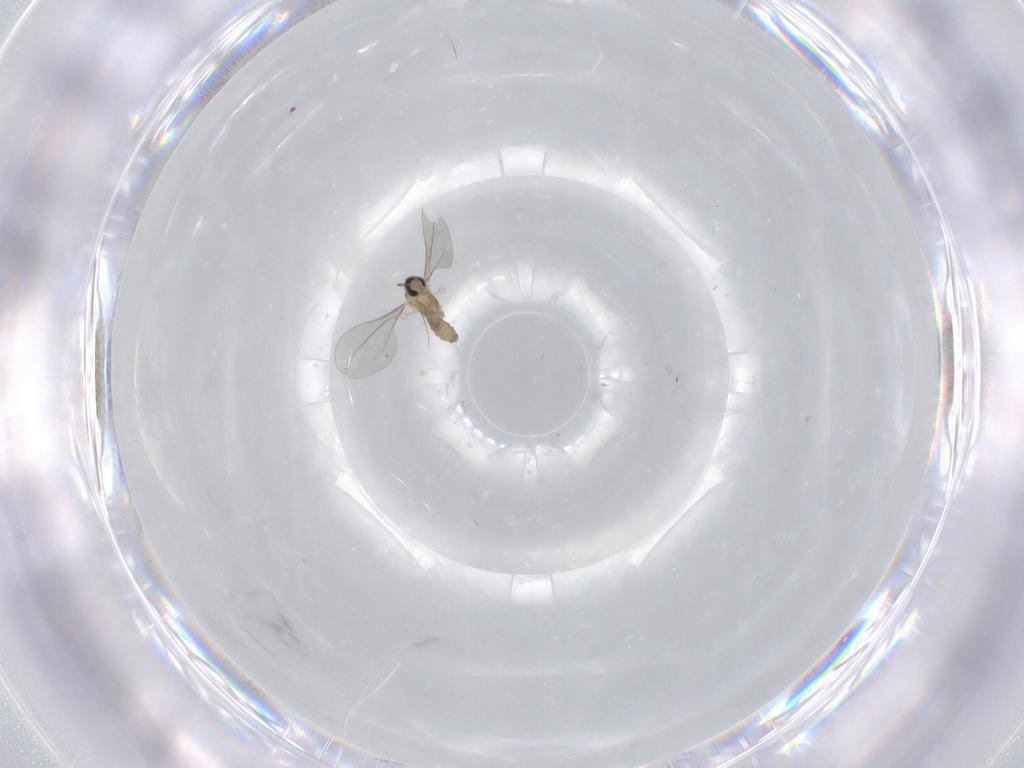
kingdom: Animalia
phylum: Arthropoda
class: Insecta
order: Diptera
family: Cecidomyiidae
